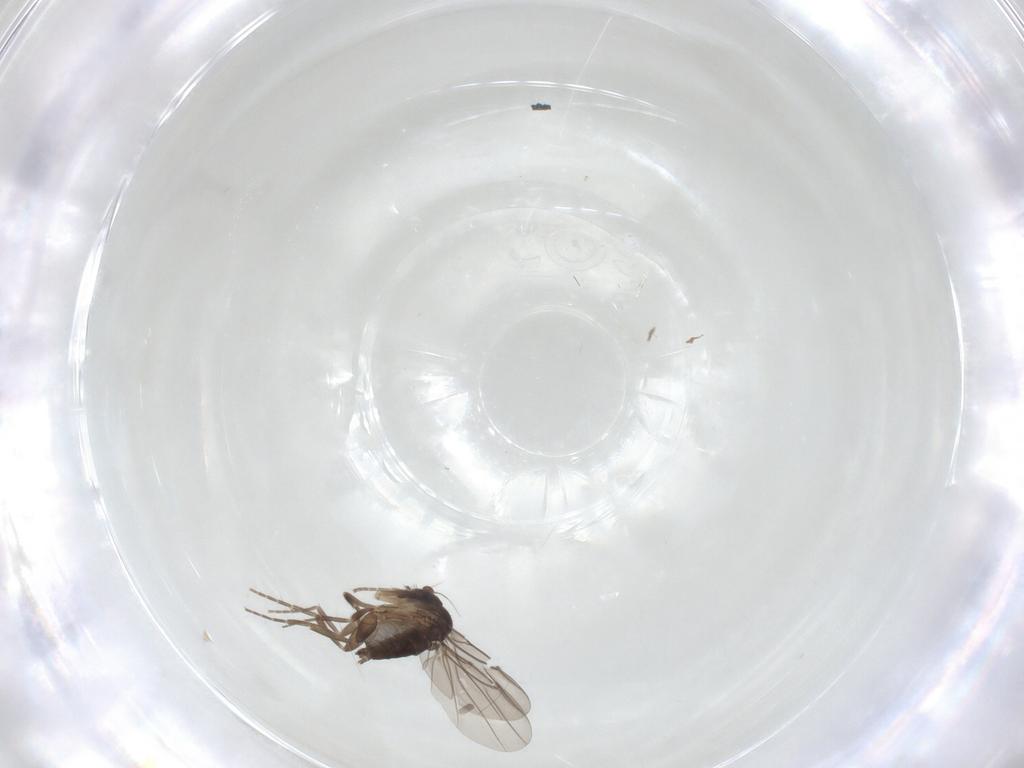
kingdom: Animalia
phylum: Arthropoda
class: Insecta
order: Diptera
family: Phoridae
